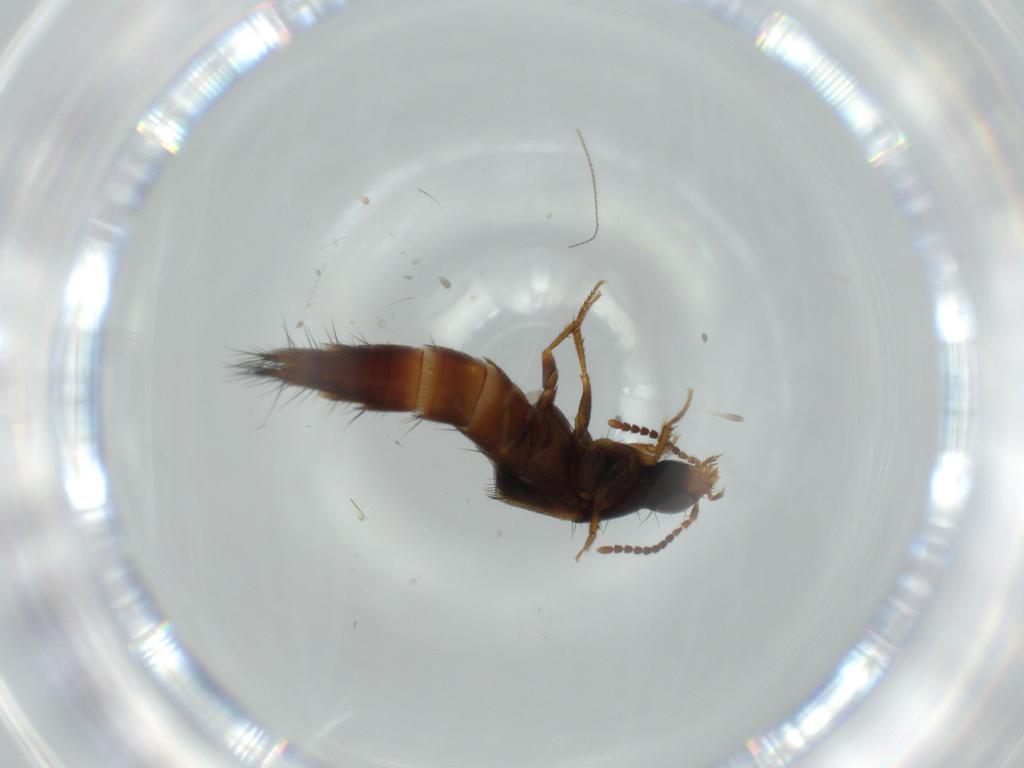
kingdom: Animalia
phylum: Arthropoda
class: Insecta
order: Coleoptera
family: Staphylinidae
